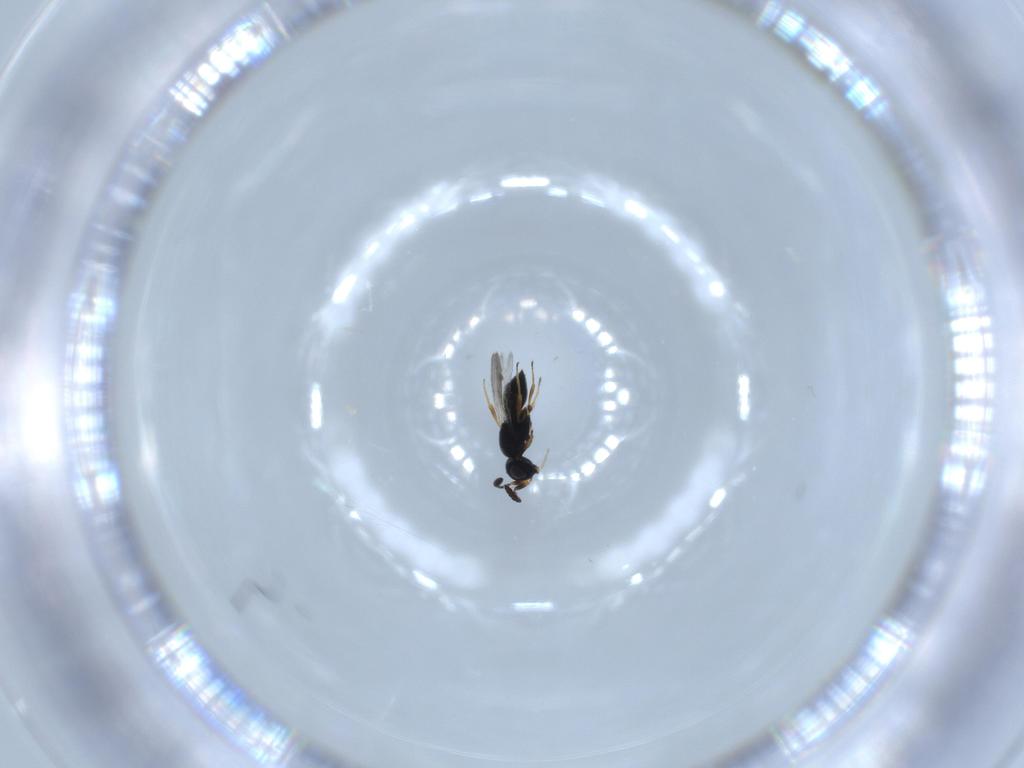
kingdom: Animalia
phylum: Arthropoda
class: Insecta
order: Hymenoptera
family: Scelionidae
